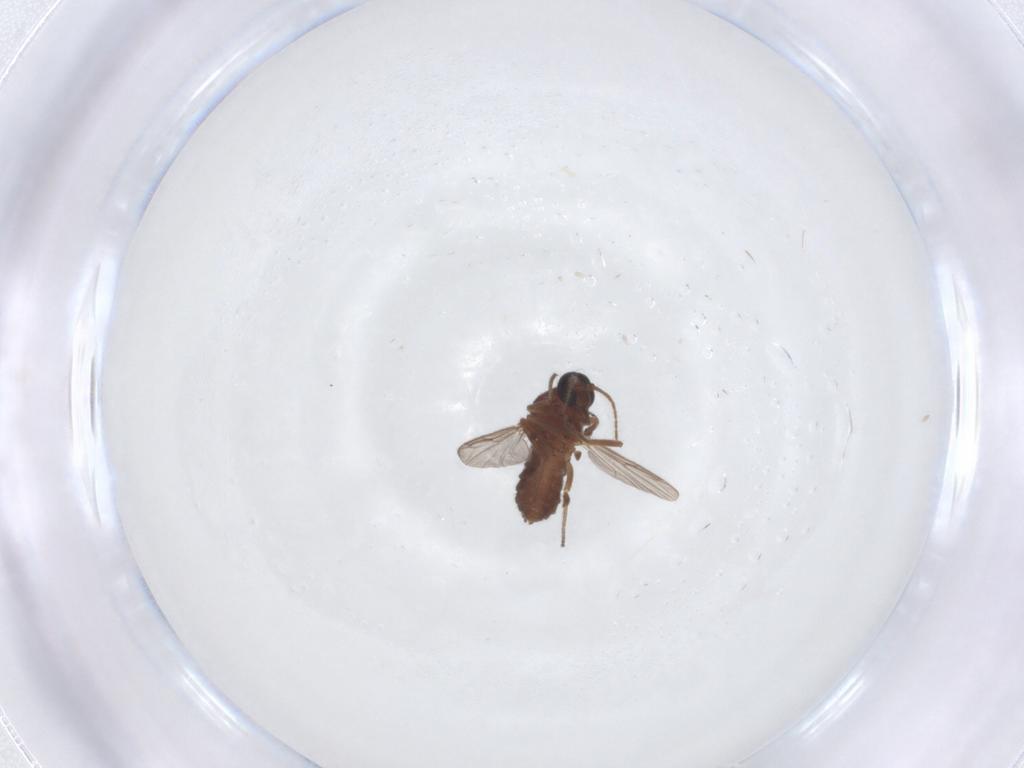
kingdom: Animalia
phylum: Arthropoda
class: Insecta
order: Diptera
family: Ceratopogonidae
